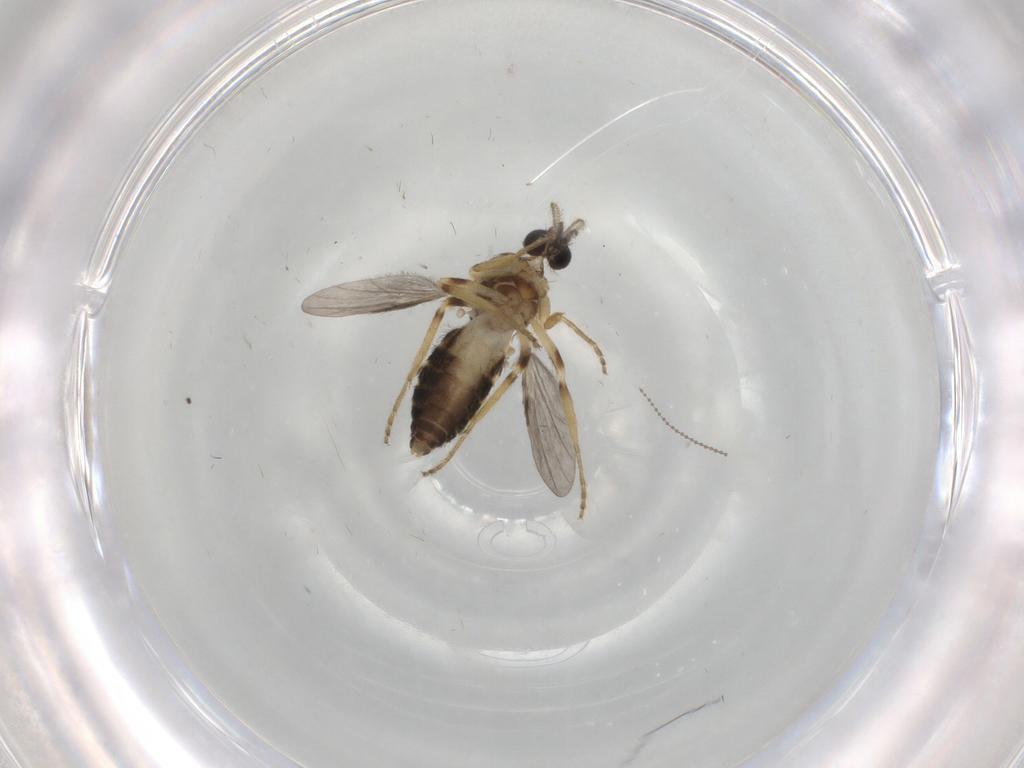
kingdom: Animalia
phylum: Arthropoda
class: Insecta
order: Diptera
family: Ceratopogonidae
